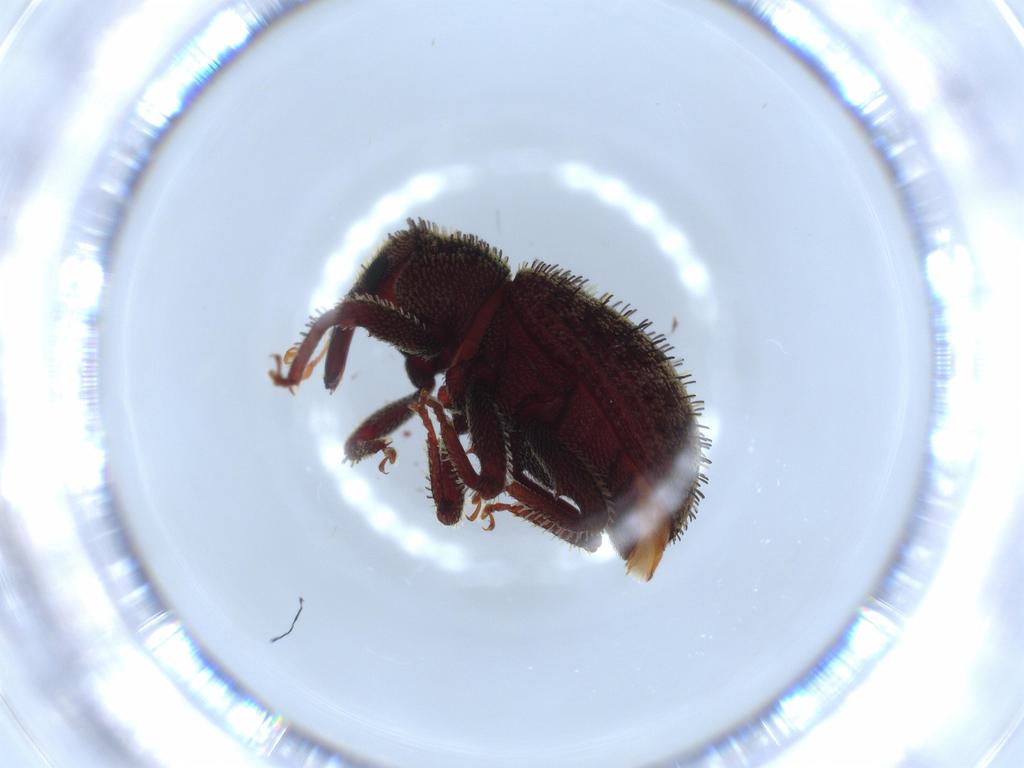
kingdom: Animalia
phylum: Arthropoda
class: Insecta
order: Coleoptera
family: Curculionidae
